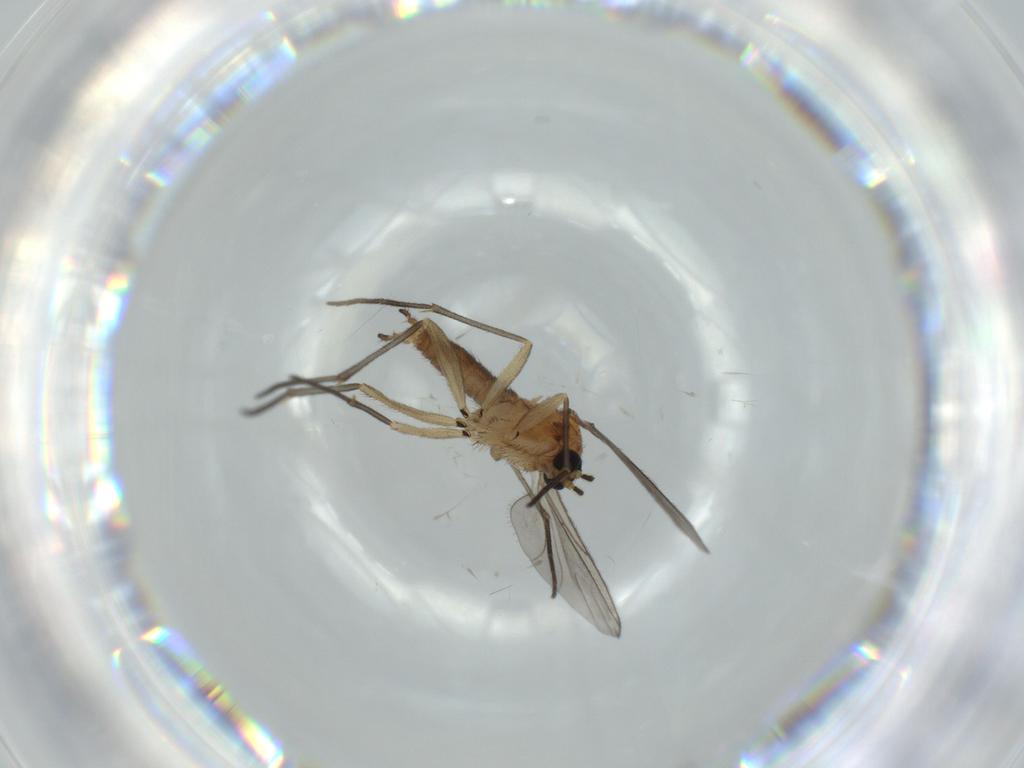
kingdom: Animalia
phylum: Arthropoda
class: Insecta
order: Diptera
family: Sciaridae
